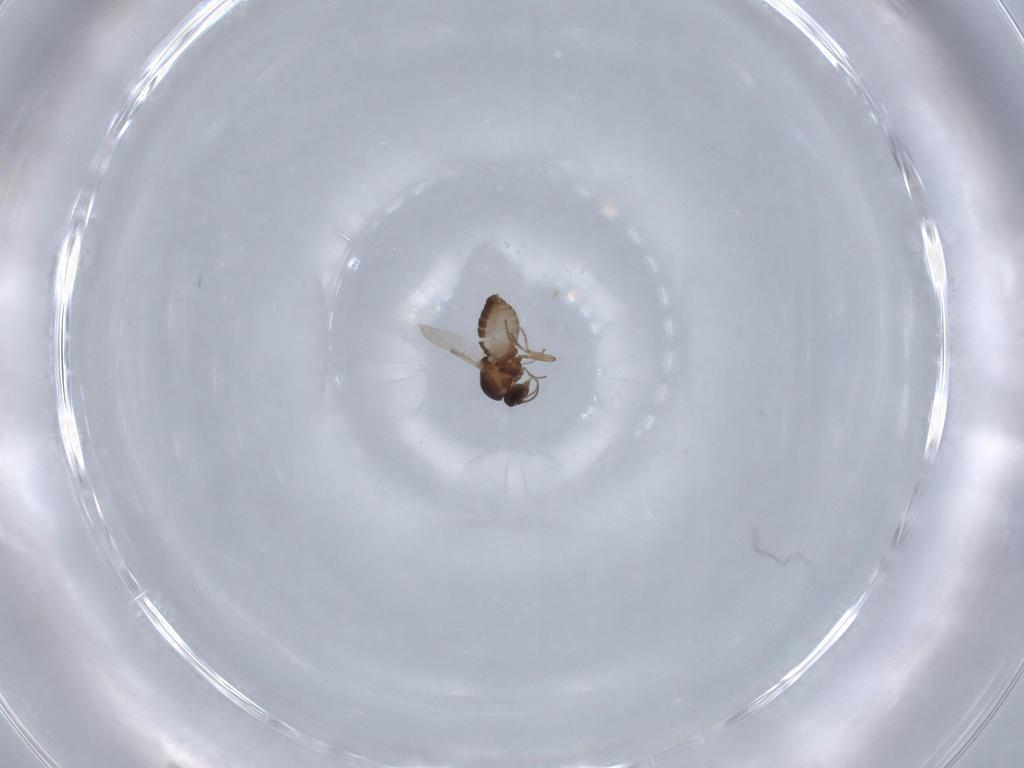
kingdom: Animalia
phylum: Arthropoda
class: Insecta
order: Diptera
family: Ceratopogonidae
